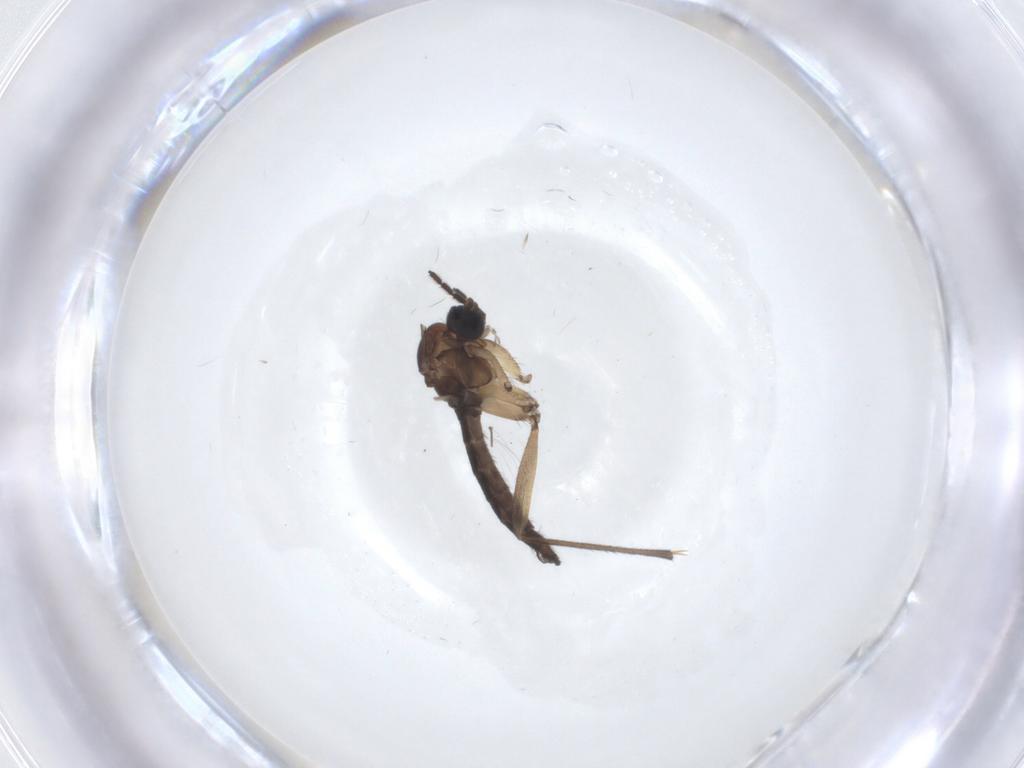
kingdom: Animalia
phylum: Arthropoda
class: Insecta
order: Diptera
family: Sciaridae
